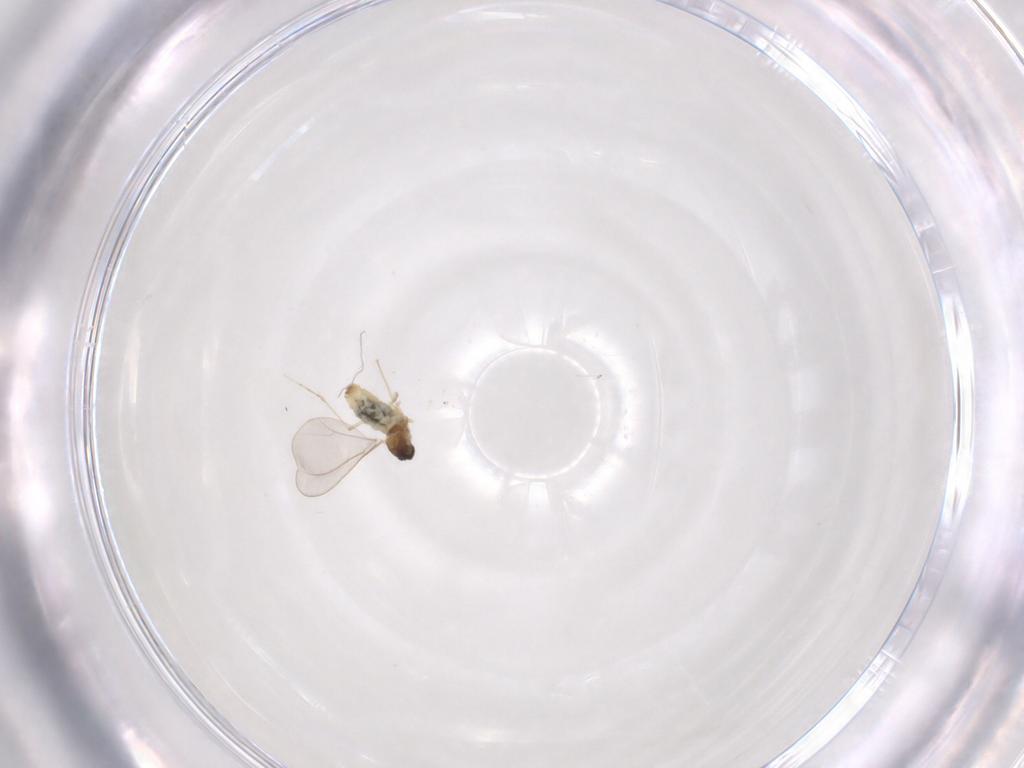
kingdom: Animalia
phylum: Arthropoda
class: Insecta
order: Diptera
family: Cecidomyiidae
